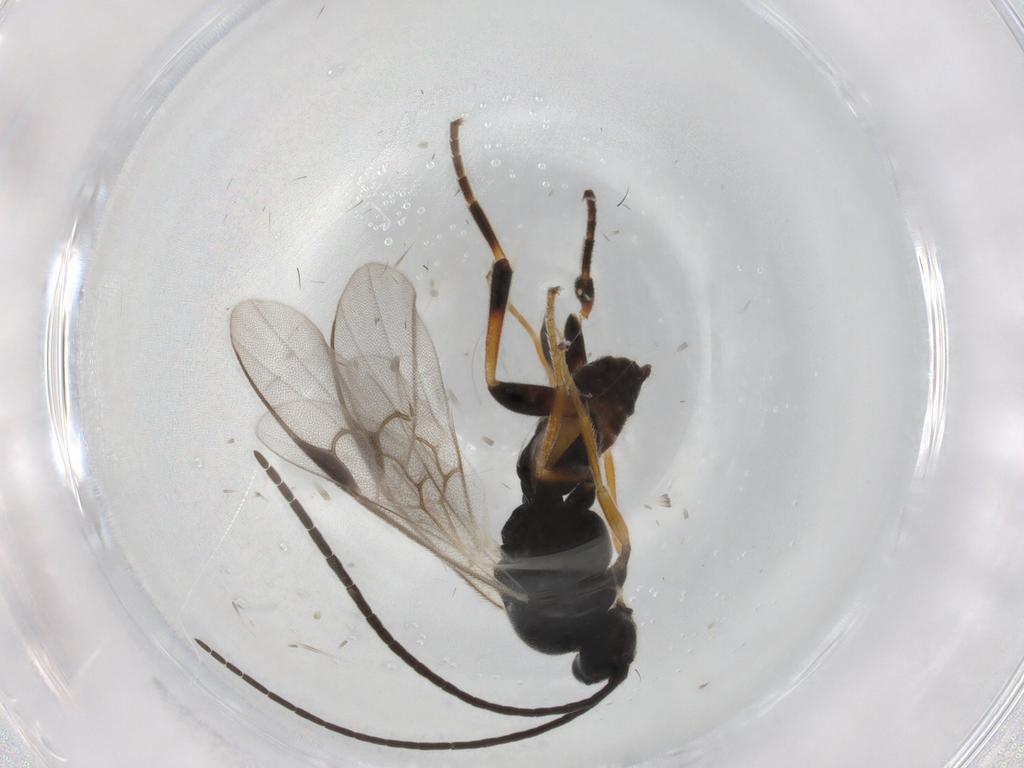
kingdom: Animalia
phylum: Arthropoda
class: Insecta
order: Hymenoptera
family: Braconidae
